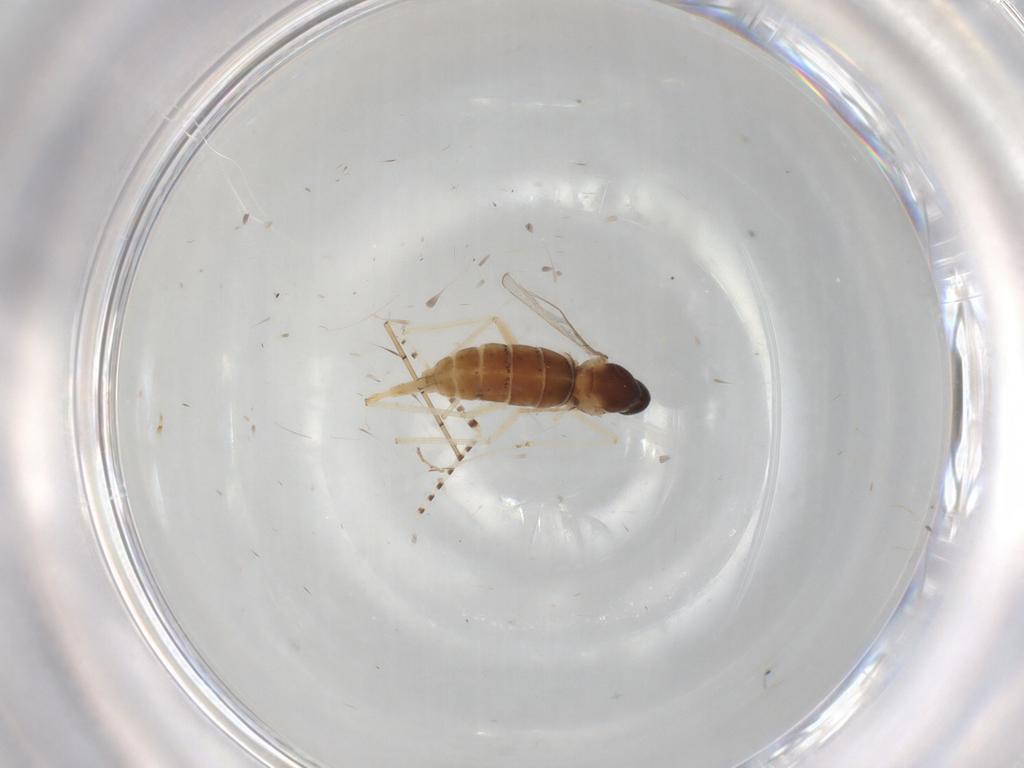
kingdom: Animalia
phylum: Arthropoda
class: Insecta
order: Diptera
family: Cecidomyiidae
